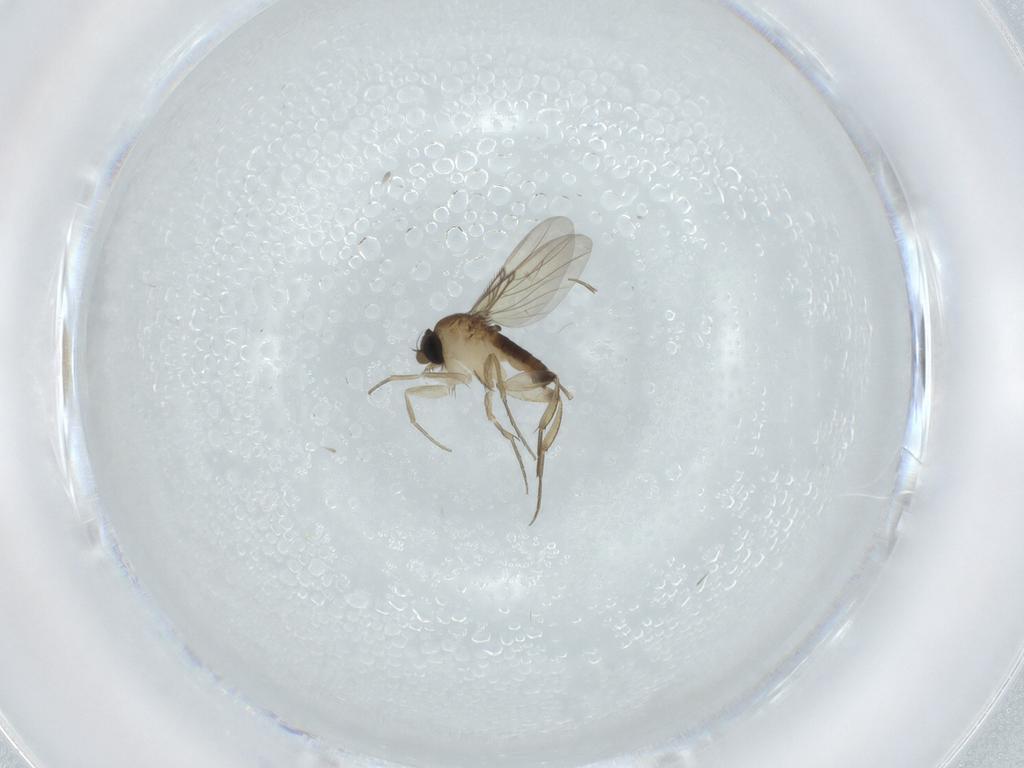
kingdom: Animalia
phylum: Arthropoda
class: Insecta
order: Diptera
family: Phoridae
